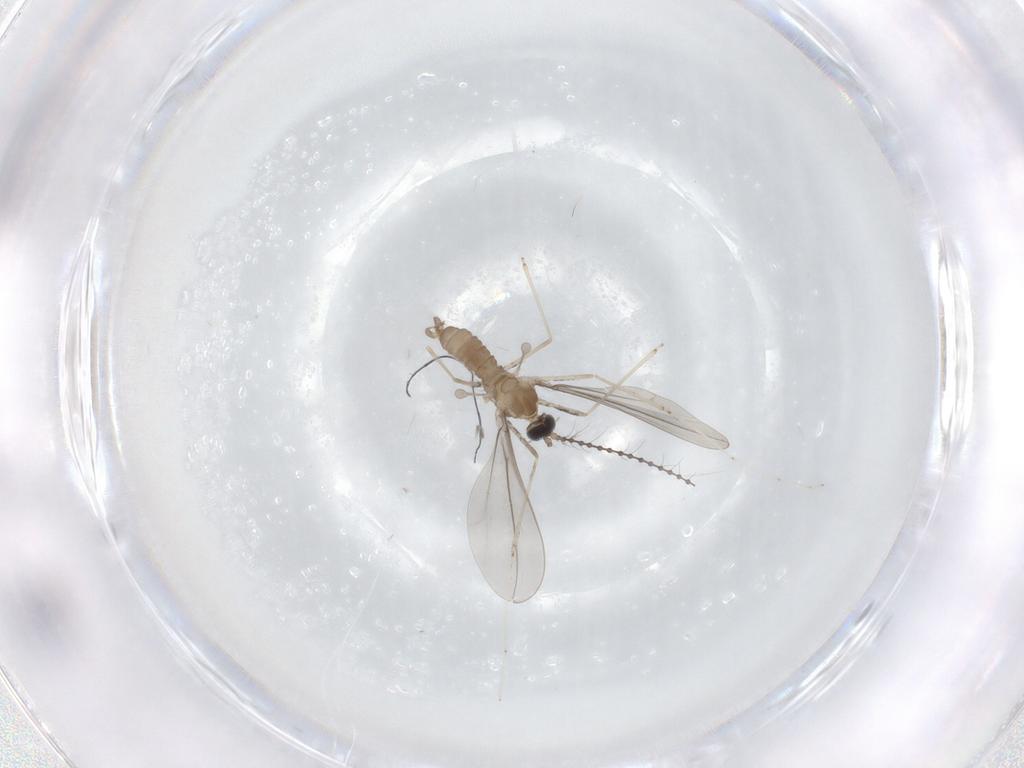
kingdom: Animalia
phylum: Arthropoda
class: Insecta
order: Diptera
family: Cecidomyiidae
